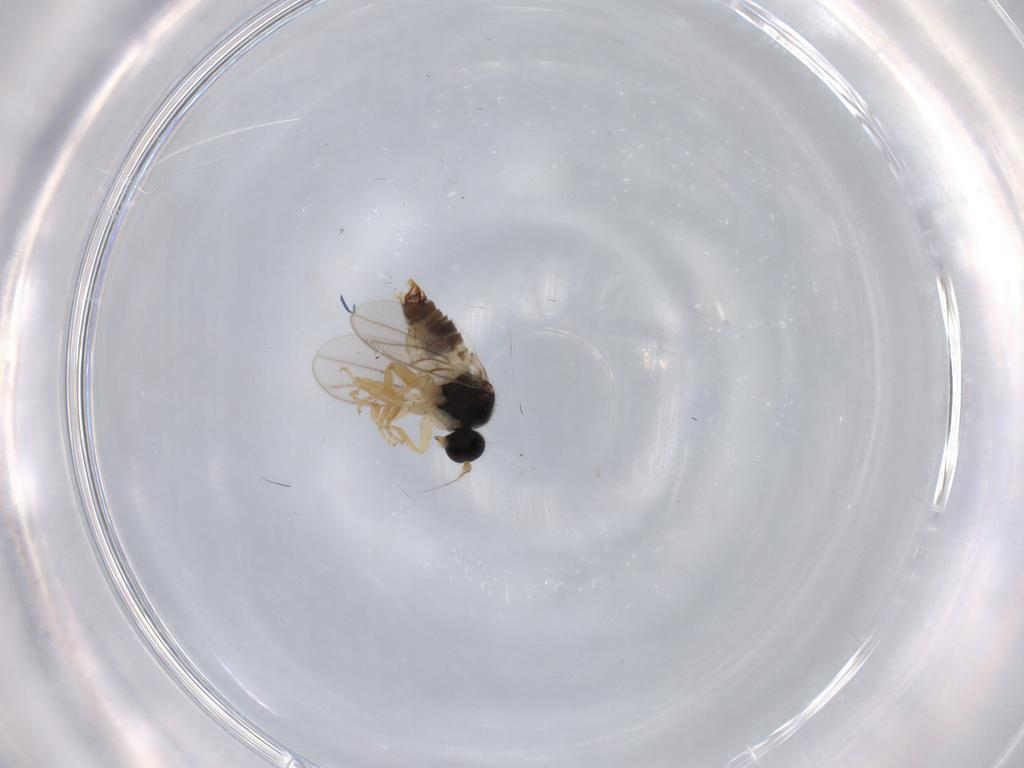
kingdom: Animalia
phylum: Arthropoda
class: Insecta
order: Diptera
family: Hybotidae
